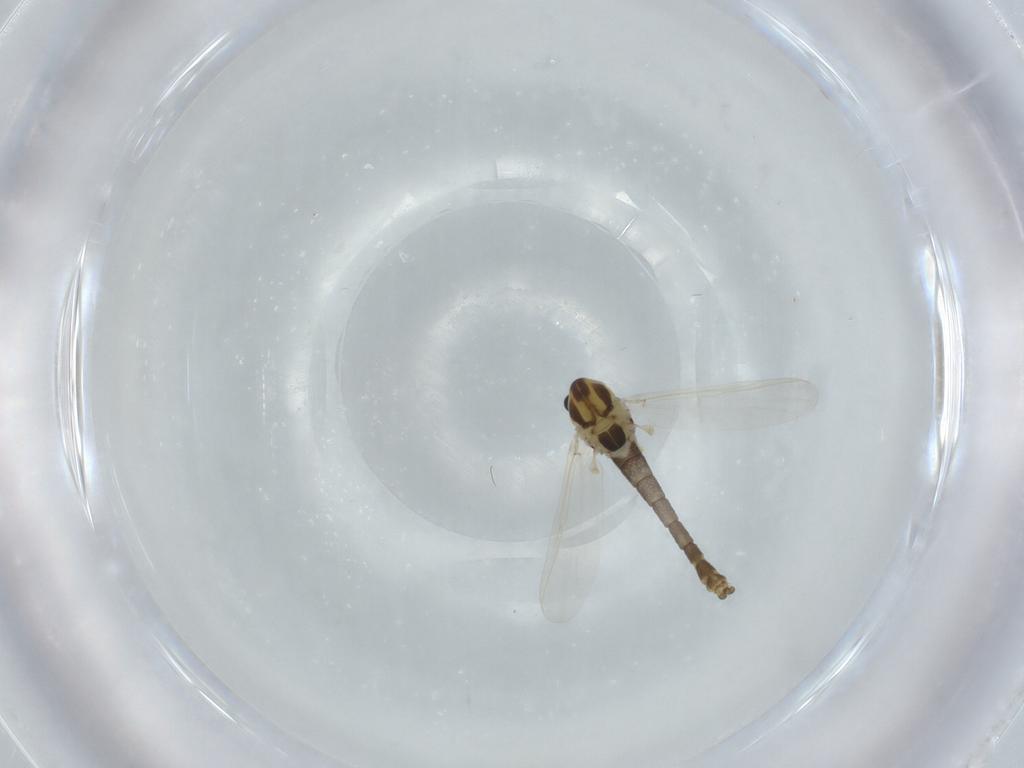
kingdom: Animalia
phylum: Arthropoda
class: Insecta
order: Diptera
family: Chironomidae
